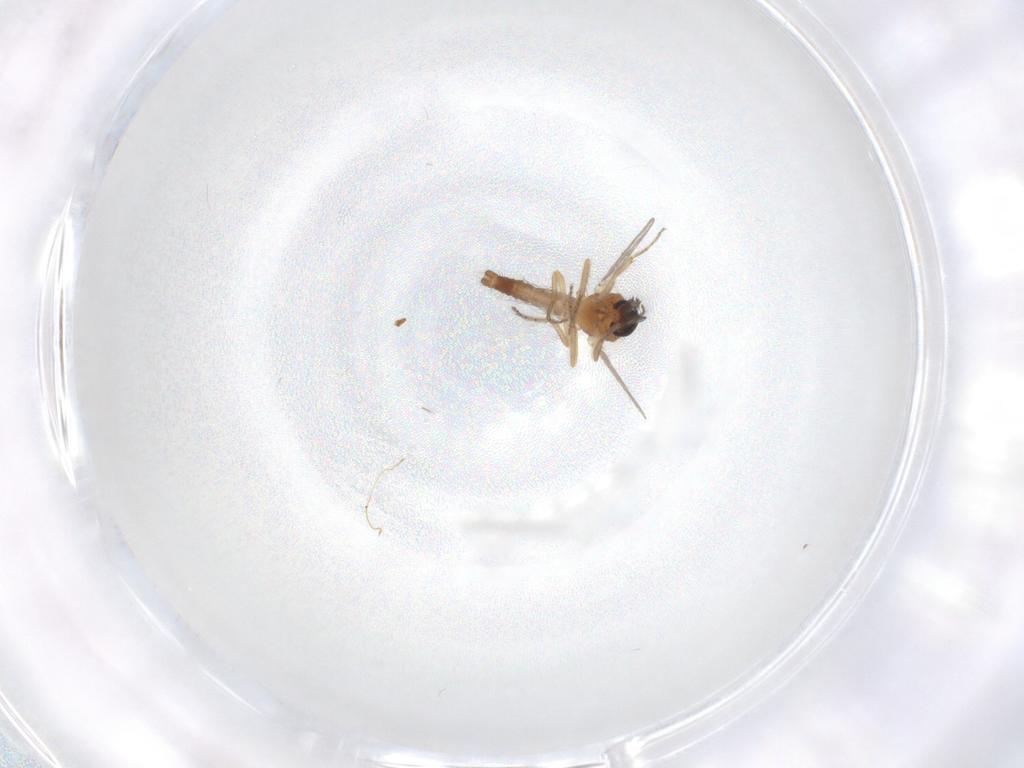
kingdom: Animalia
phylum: Arthropoda
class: Insecta
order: Diptera
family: Ceratopogonidae
